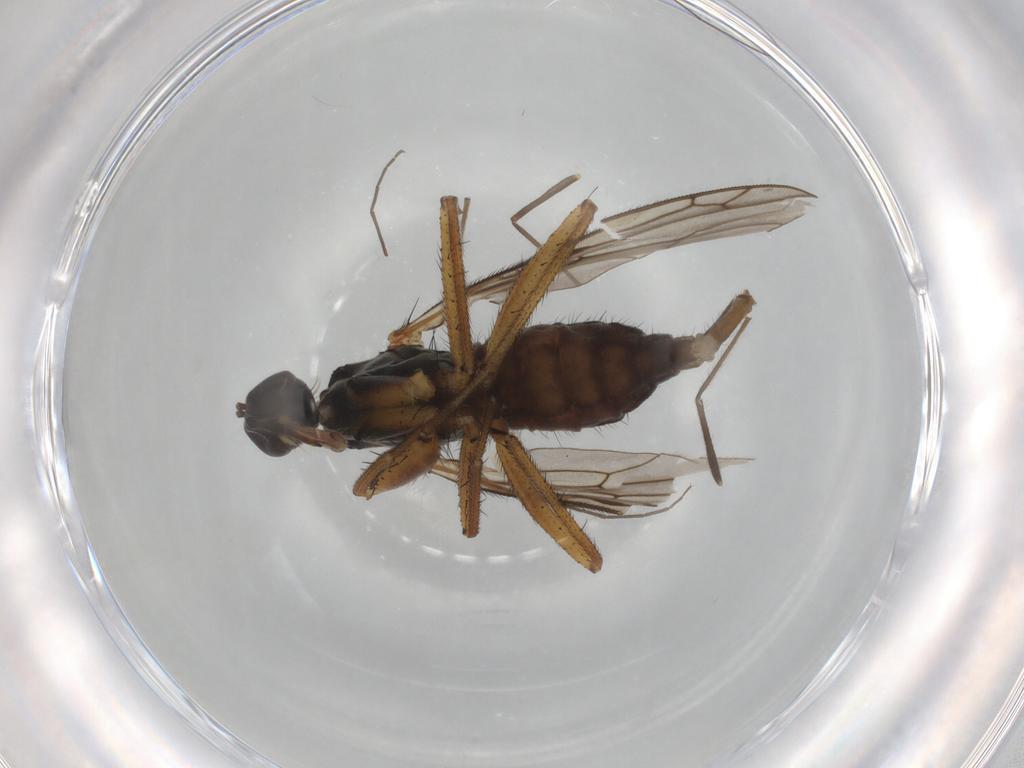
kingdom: Animalia
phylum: Arthropoda
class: Insecta
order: Diptera
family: Empididae
